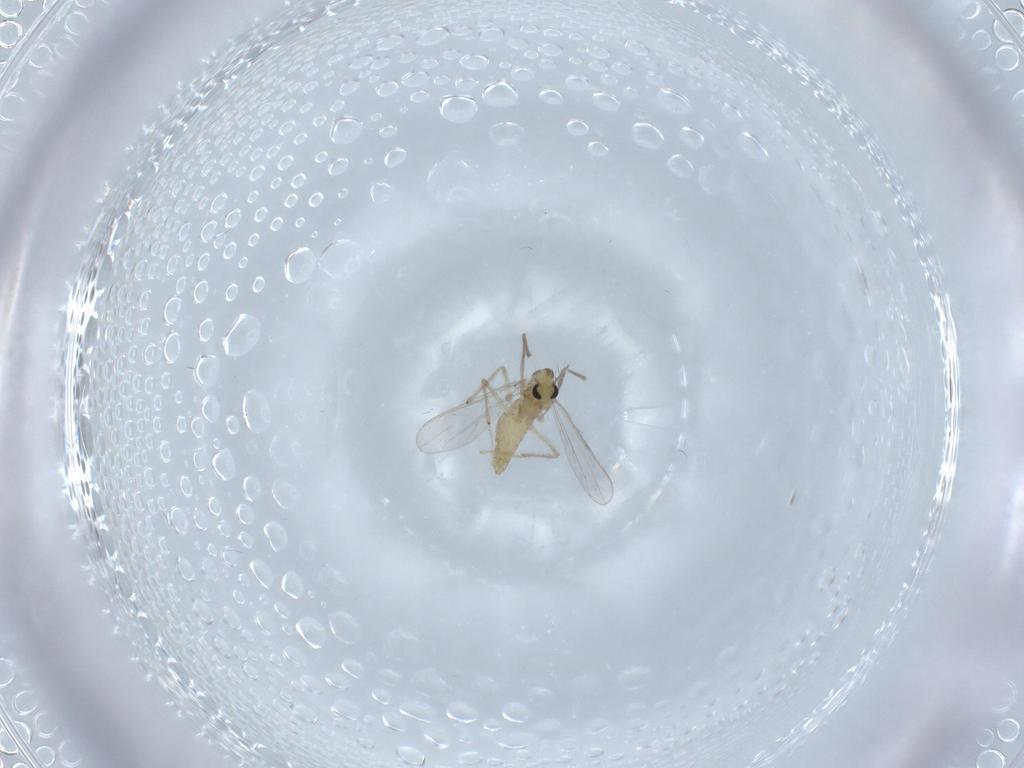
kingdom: Animalia
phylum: Arthropoda
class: Insecta
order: Diptera
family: Chironomidae
